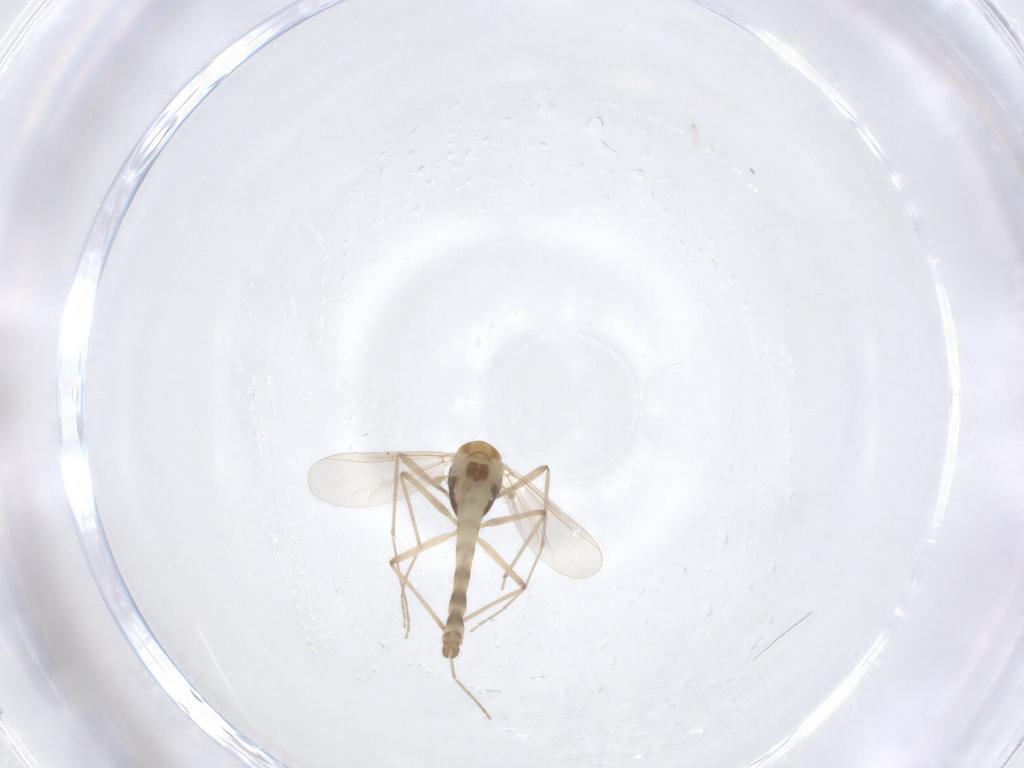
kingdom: Animalia
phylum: Arthropoda
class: Insecta
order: Diptera
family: Chironomidae
